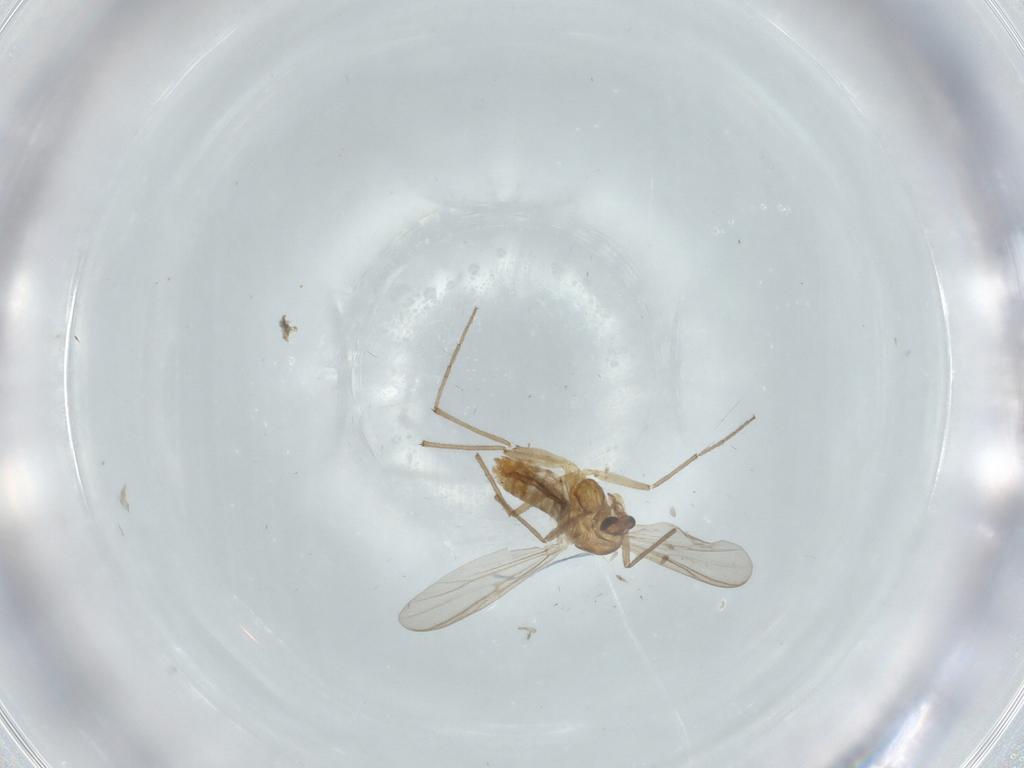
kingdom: Animalia
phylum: Arthropoda
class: Insecta
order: Diptera
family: Chironomidae
